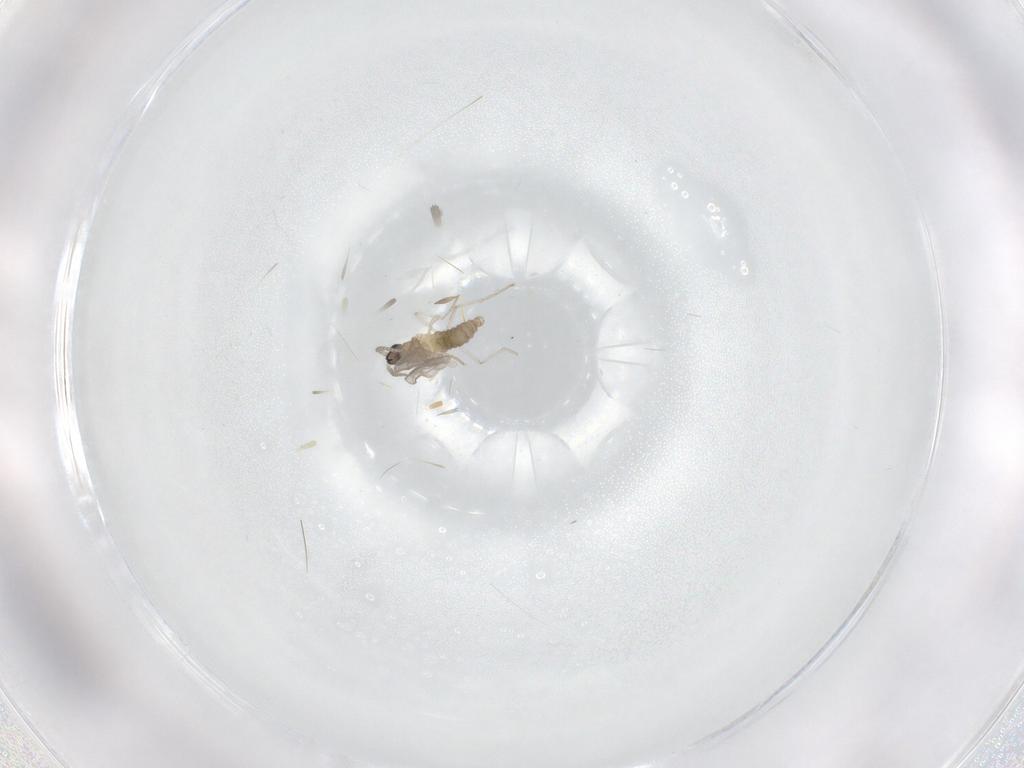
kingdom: Animalia
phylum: Arthropoda
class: Insecta
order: Diptera
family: Cecidomyiidae
